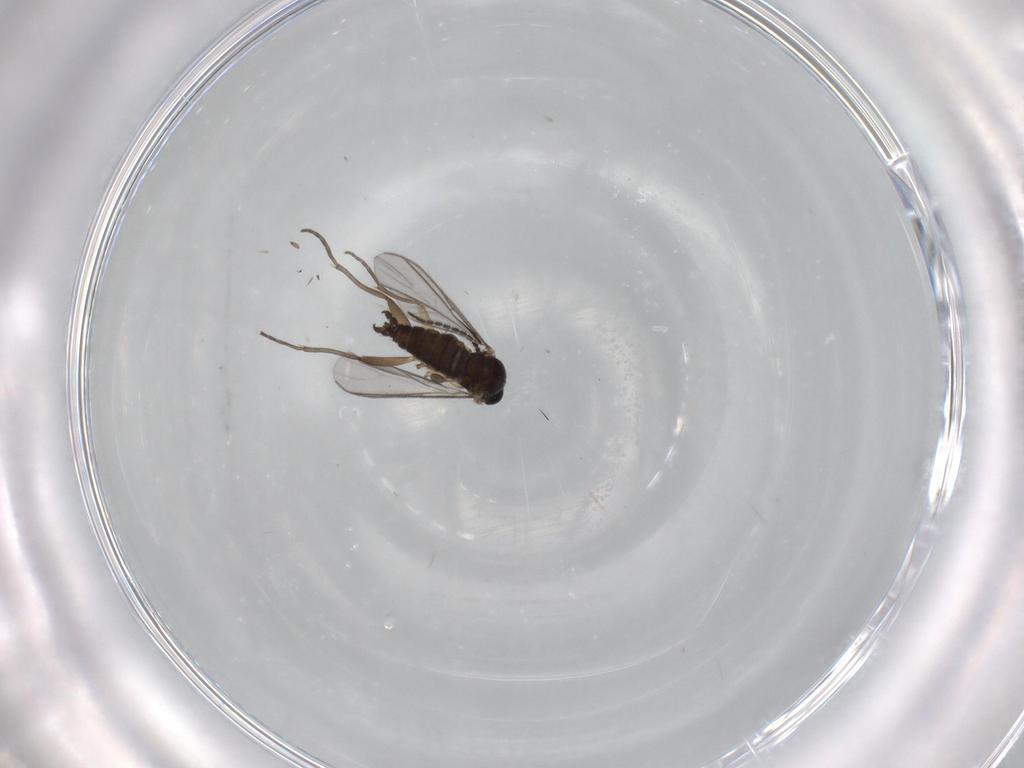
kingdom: Animalia
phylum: Arthropoda
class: Insecta
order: Diptera
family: Sciaridae
